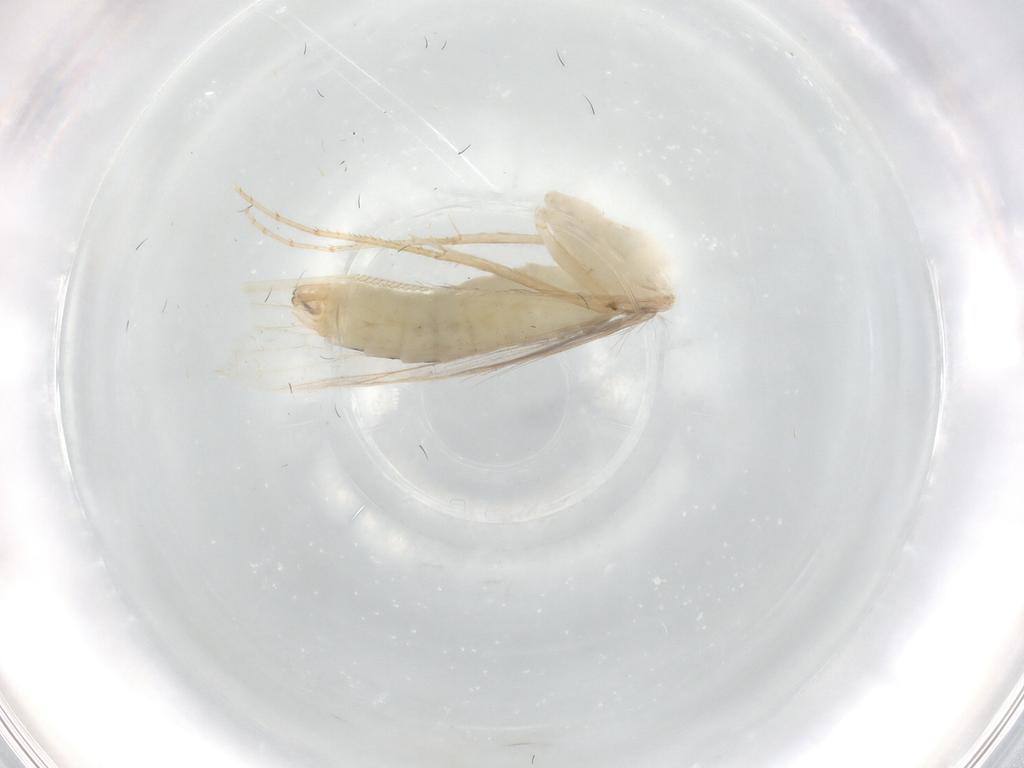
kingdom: Animalia
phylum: Arthropoda
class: Insecta
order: Trichoptera
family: Leptoceridae
